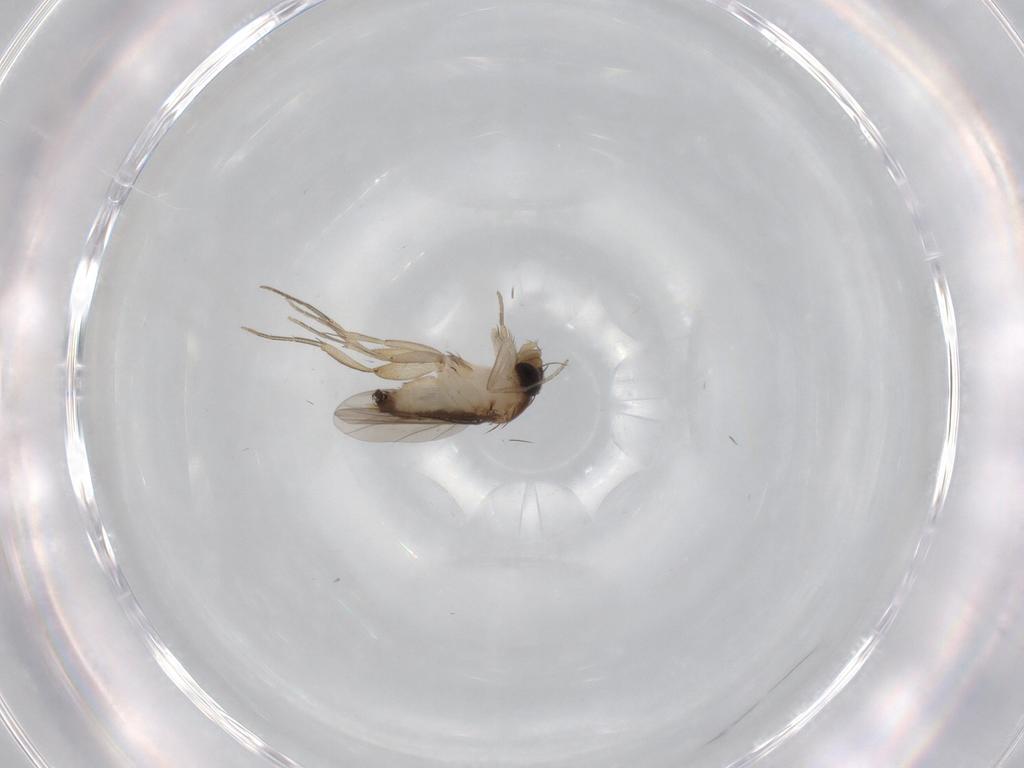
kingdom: Animalia
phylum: Arthropoda
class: Insecta
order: Diptera
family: Phoridae
